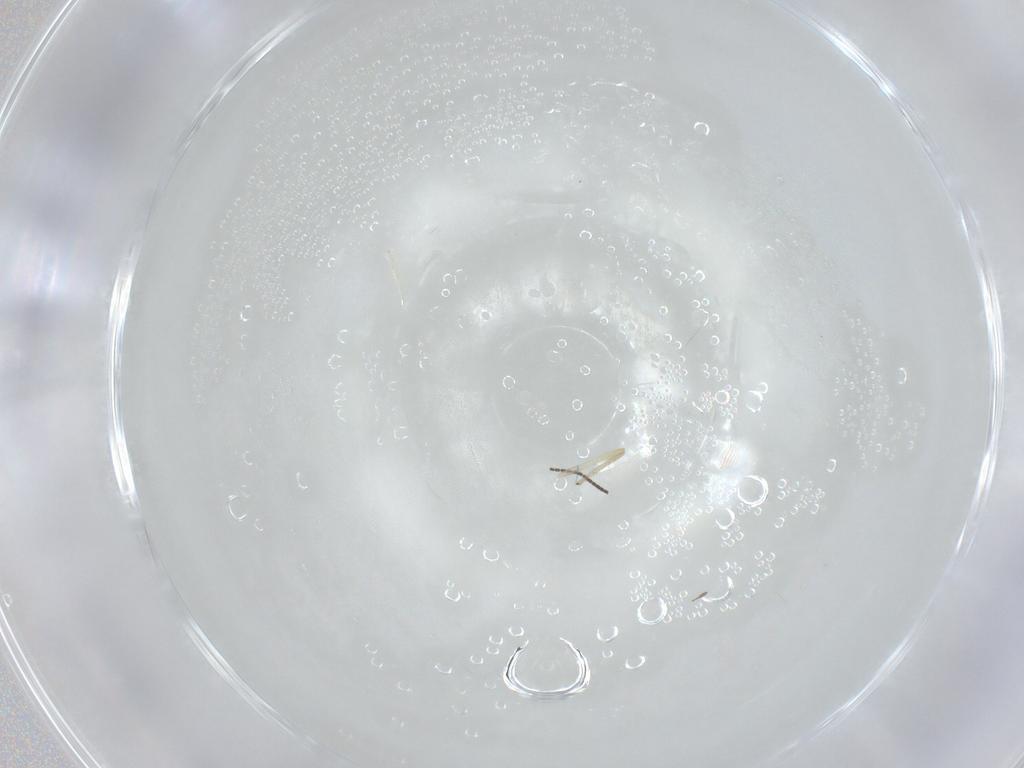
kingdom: Animalia
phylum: Arthropoda
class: Insecta
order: Diptera
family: Sciaridae
